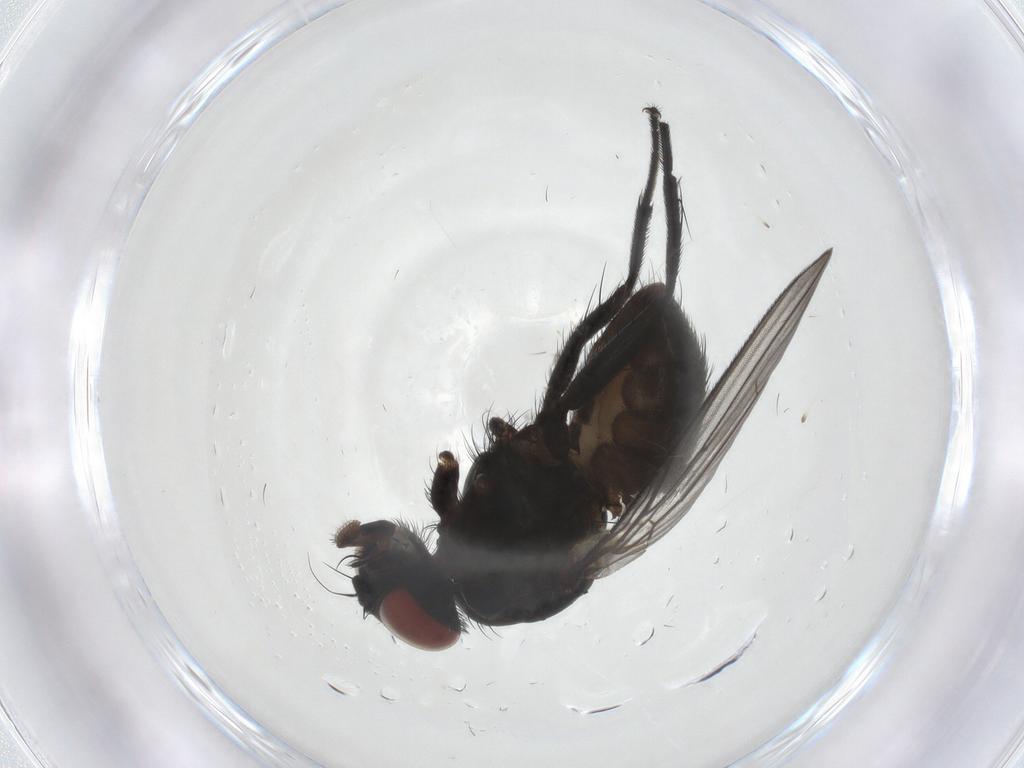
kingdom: Animalia
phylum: Arthropoda
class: Insecta
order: Diptera
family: Muscidae
